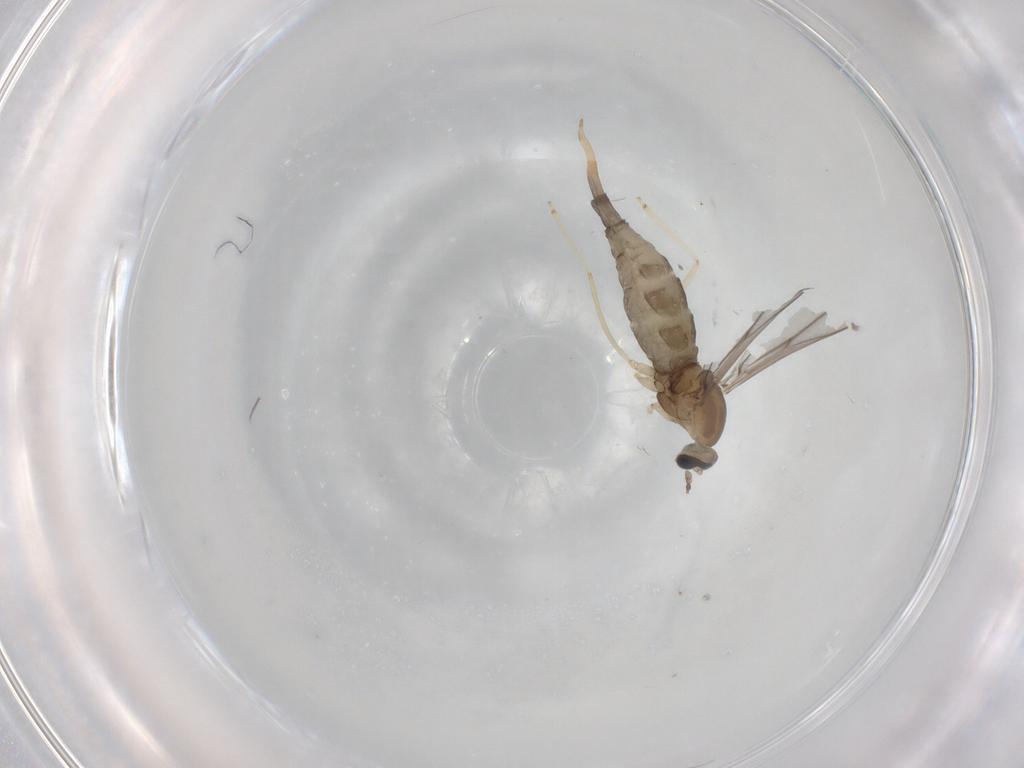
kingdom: Animalia
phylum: Arthropoda
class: Insecta
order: Diptera
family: Cecidomyiidae
